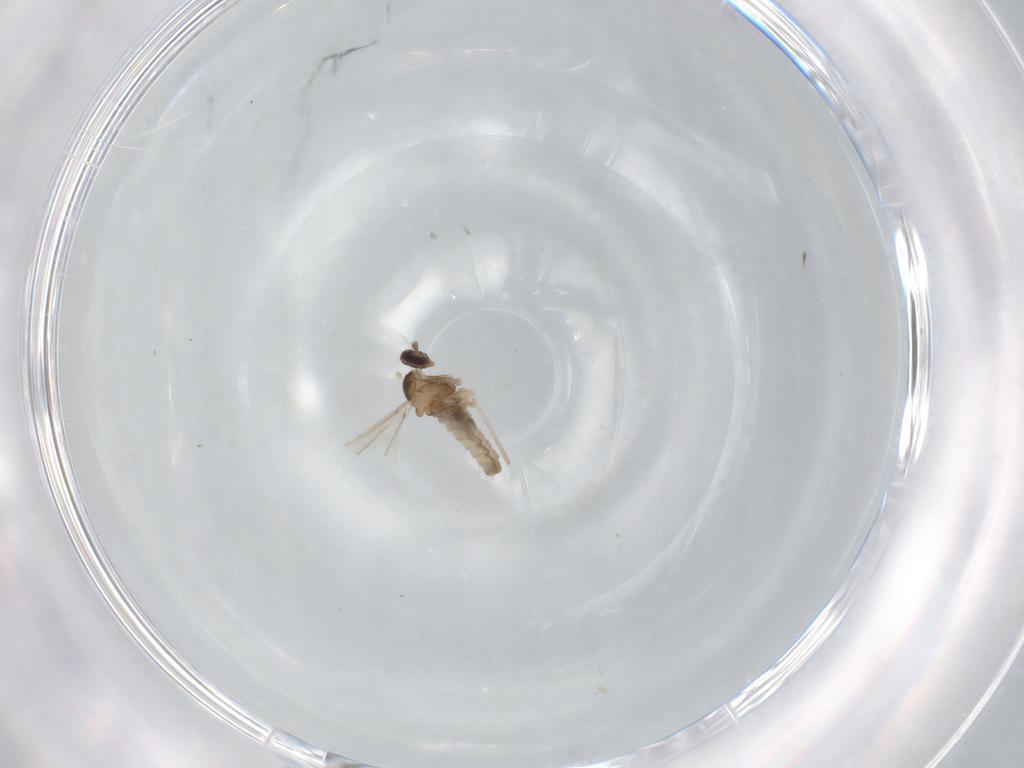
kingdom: Animalia
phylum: Arthropoda
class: Insecta
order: Diptera
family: Cecidomyiidae
